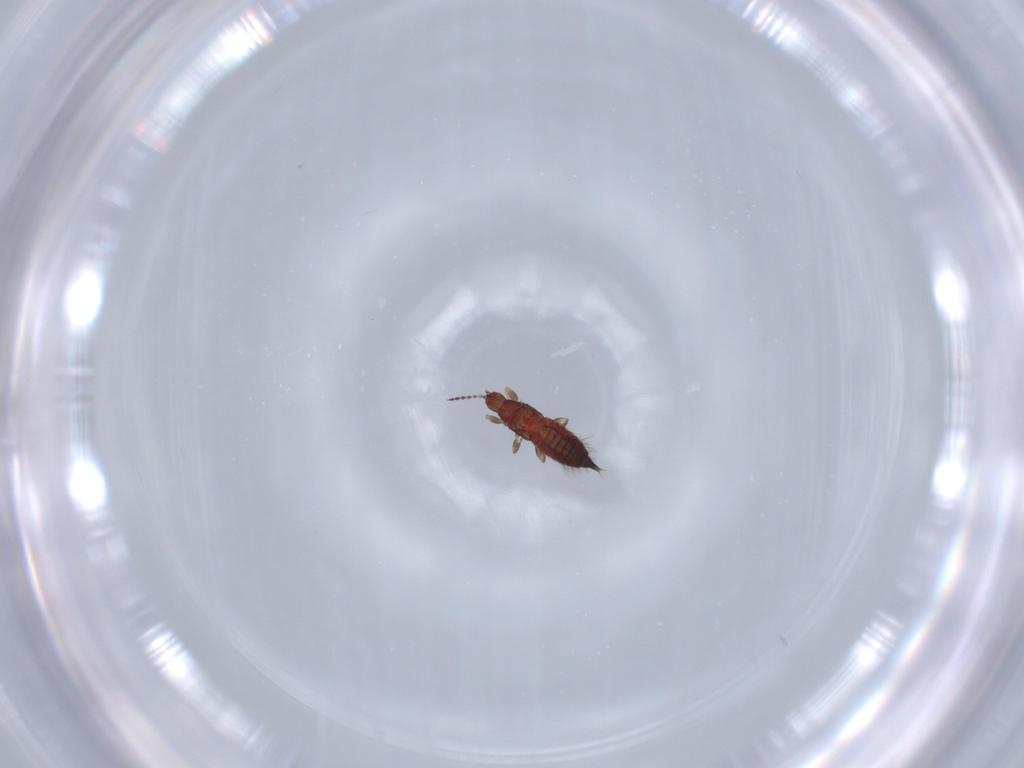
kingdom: Animalia
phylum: Arthropoda
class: Insecta
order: Thysanoptera
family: Phlaeothripidae
